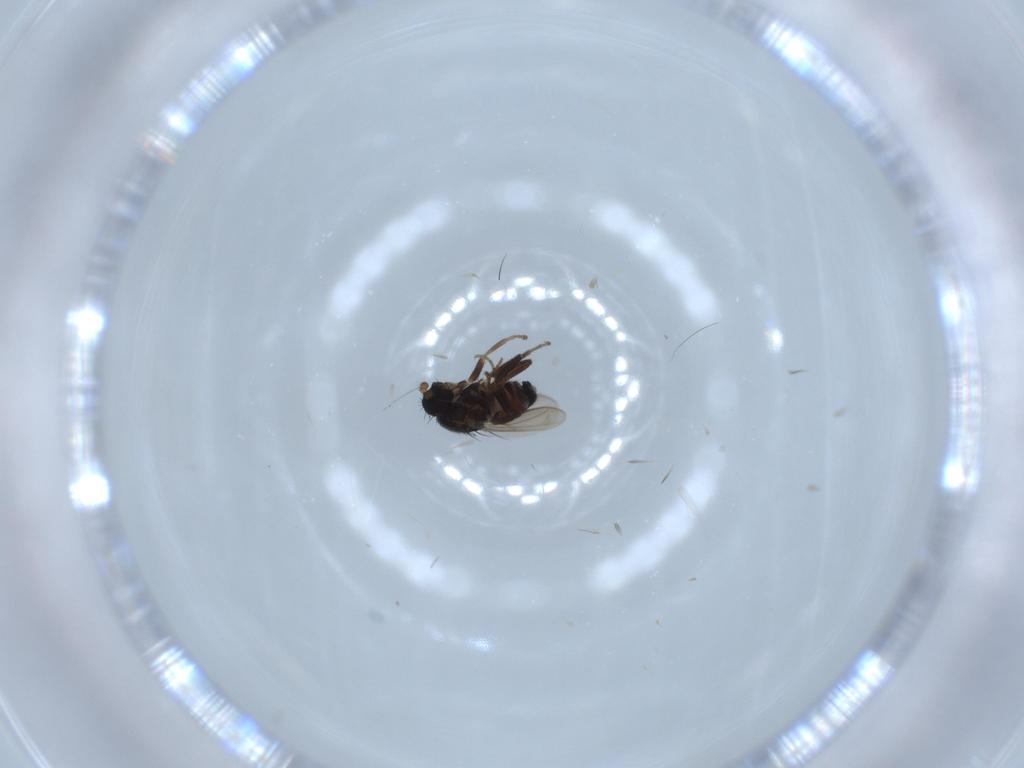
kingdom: Animalia
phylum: Arthropoda
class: Insecta
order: Diptera
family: Sphaeroceridae
